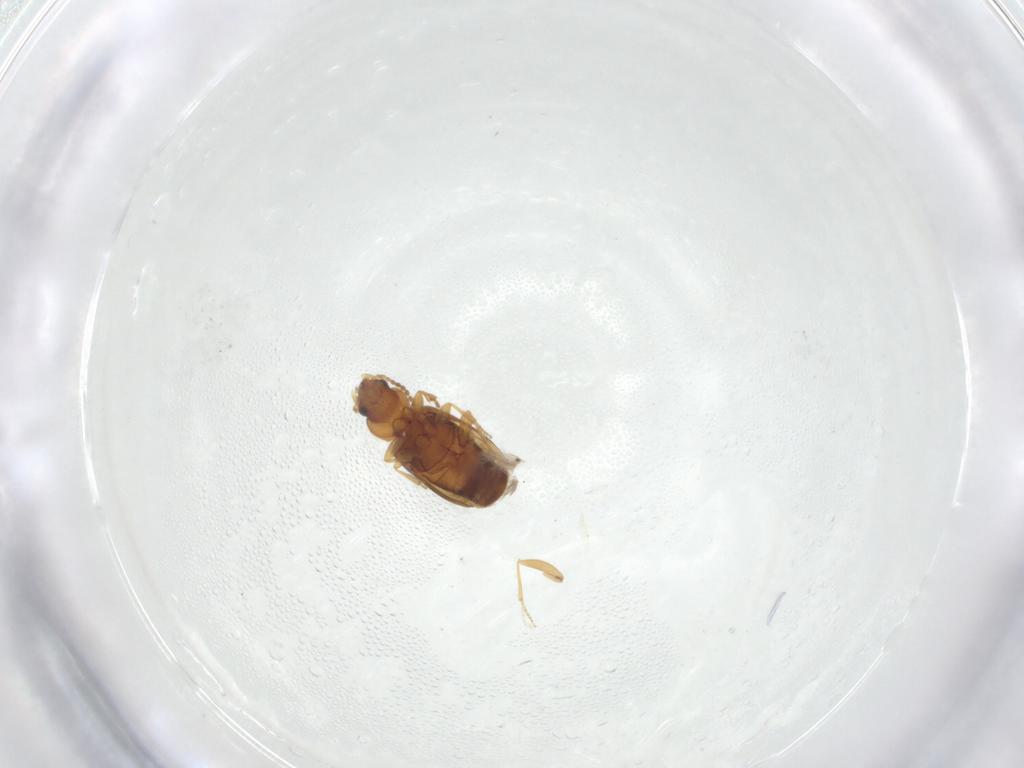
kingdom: Animalia
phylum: Arthropoda
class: Insecta
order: Coleoptera
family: Carabidae
